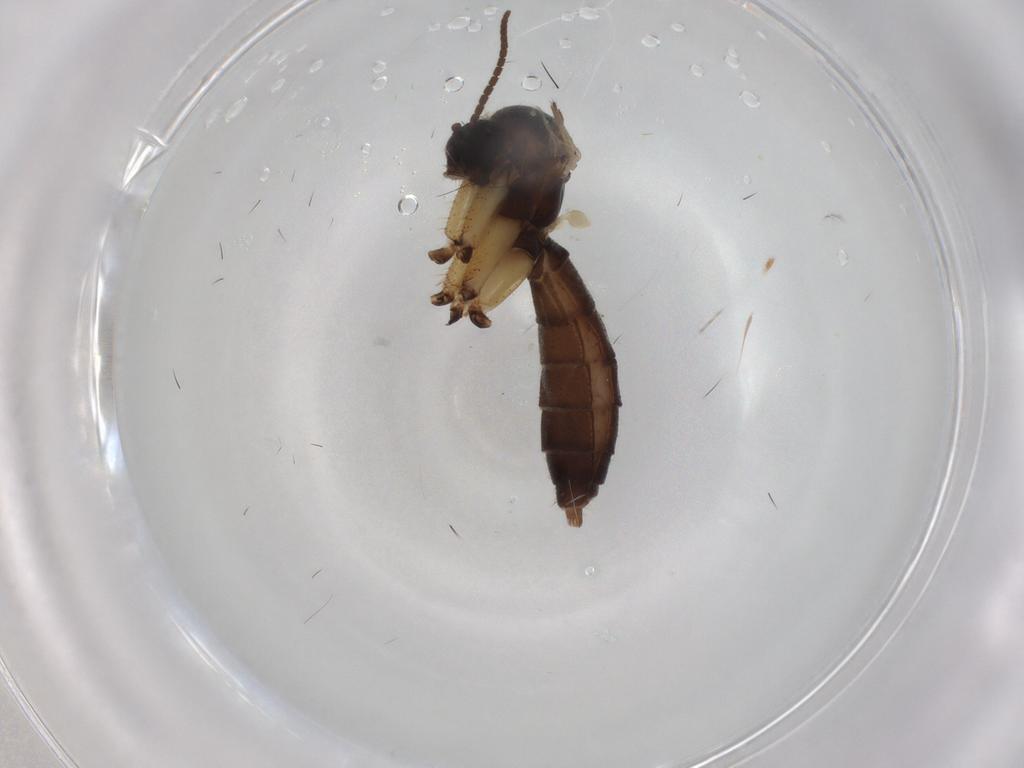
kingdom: Animalia
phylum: Arthropoda
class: Insecta
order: Diptera
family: Mycetophilidae
